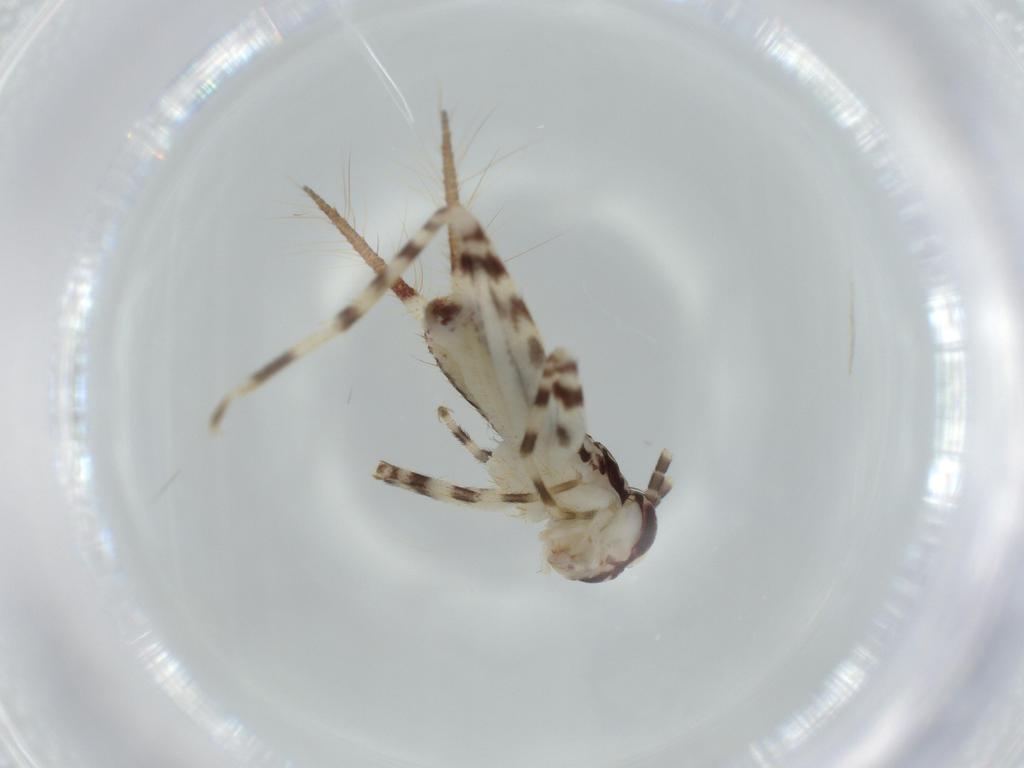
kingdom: Animalia
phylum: Arthropoda
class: Insecta
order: Orthoptera
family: Gryllidae
